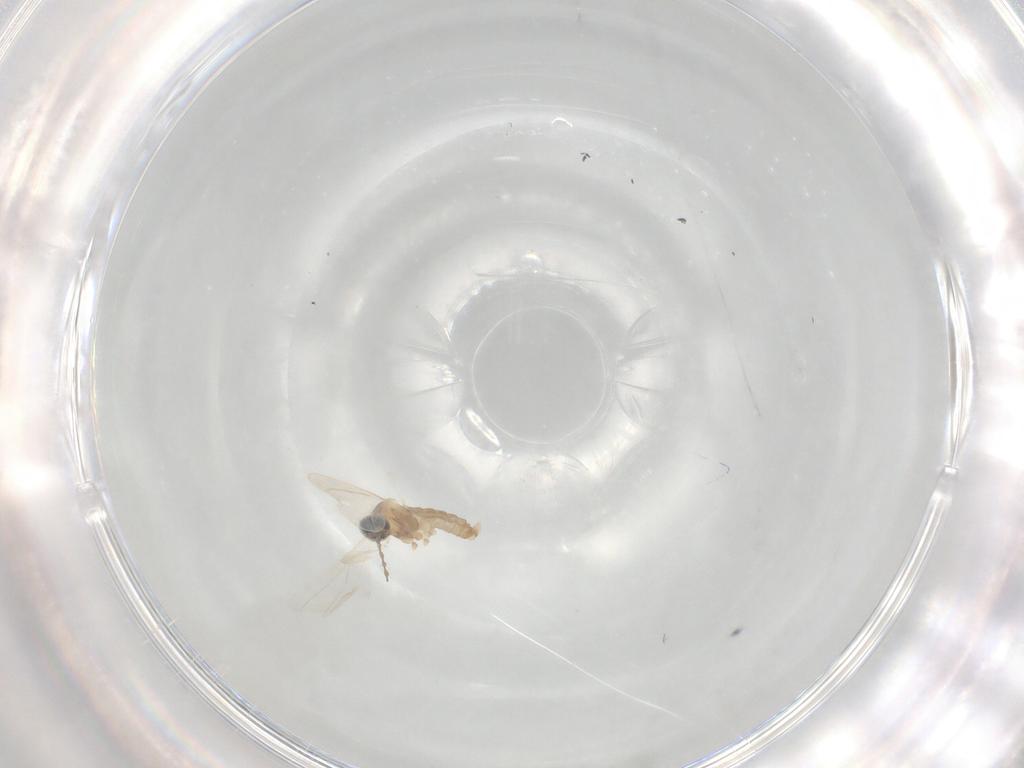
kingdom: Animalia
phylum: Arthropoda
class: Insecta
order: Diptera
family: Cecidomyiidae
